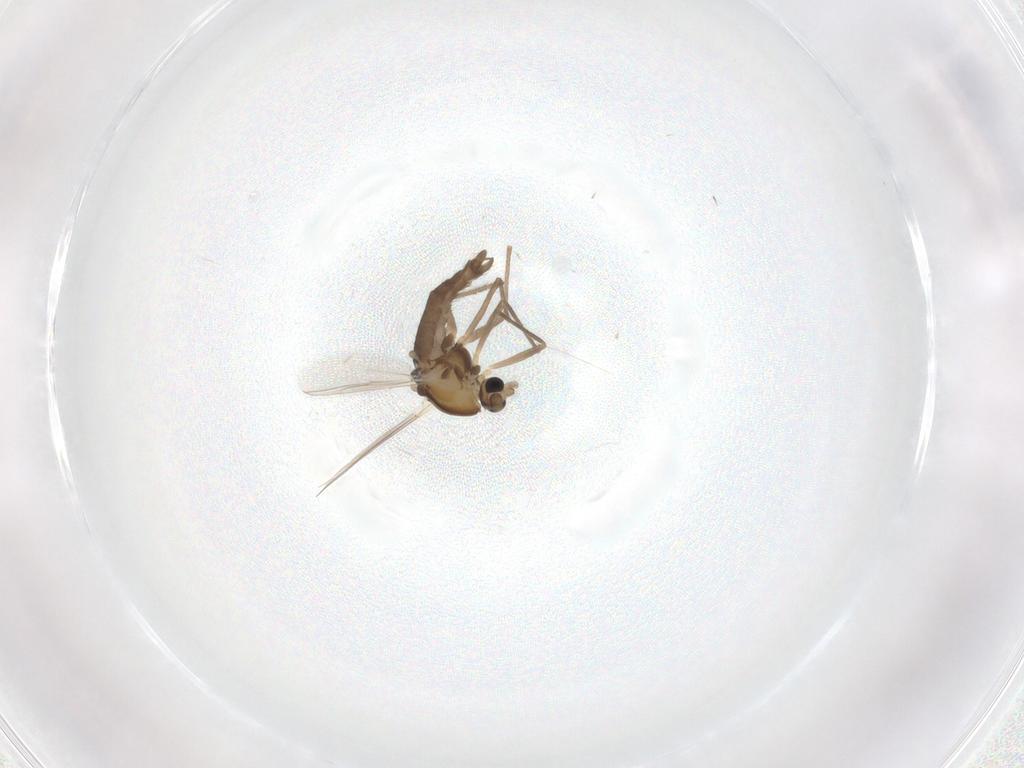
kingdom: Animalia
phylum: Arthropoda
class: Insecta
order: Diptera
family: Chironomidae
